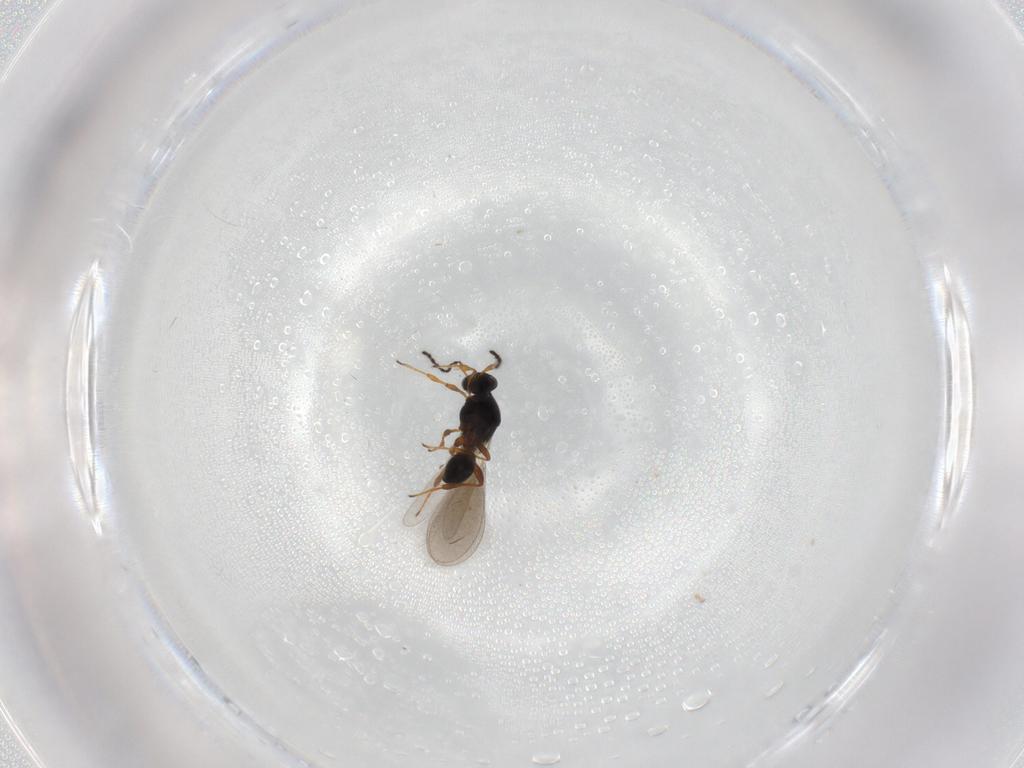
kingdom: Animalia
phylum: Arthropoda
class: Insecta
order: Hymenoptera
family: Platygastridae
